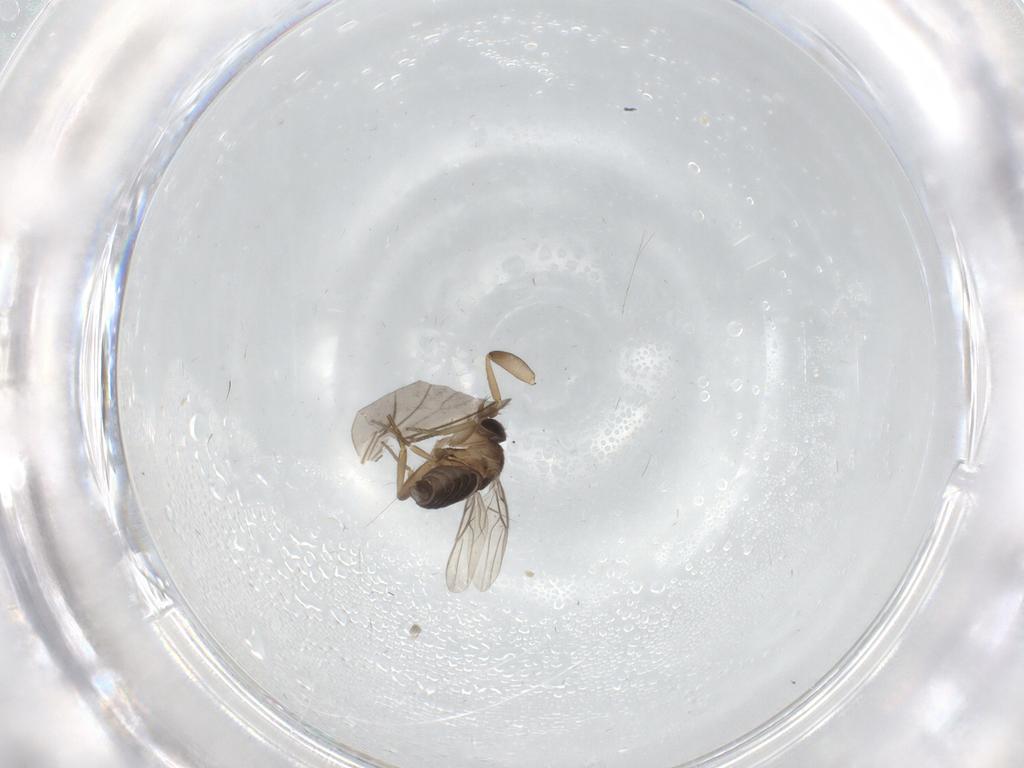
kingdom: Animalia
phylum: Arthropoda
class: Insecta
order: Diptera
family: Phoridae
